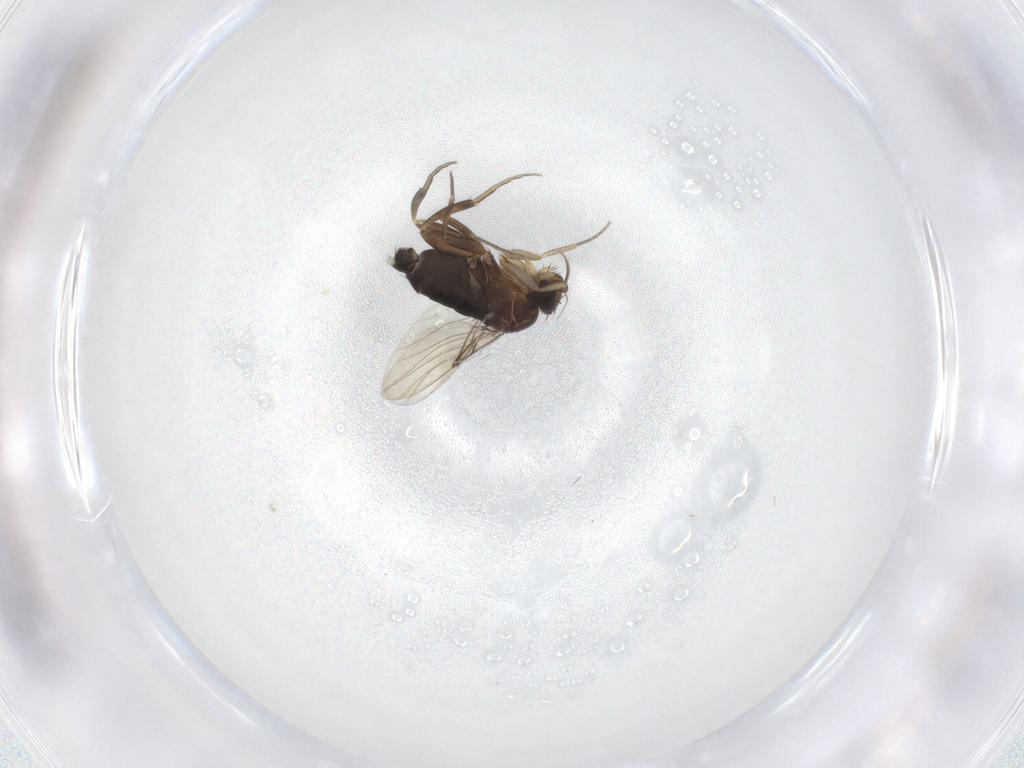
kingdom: Animalia
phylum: Arthropoda
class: Insecta
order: Diptera
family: Phoridae
